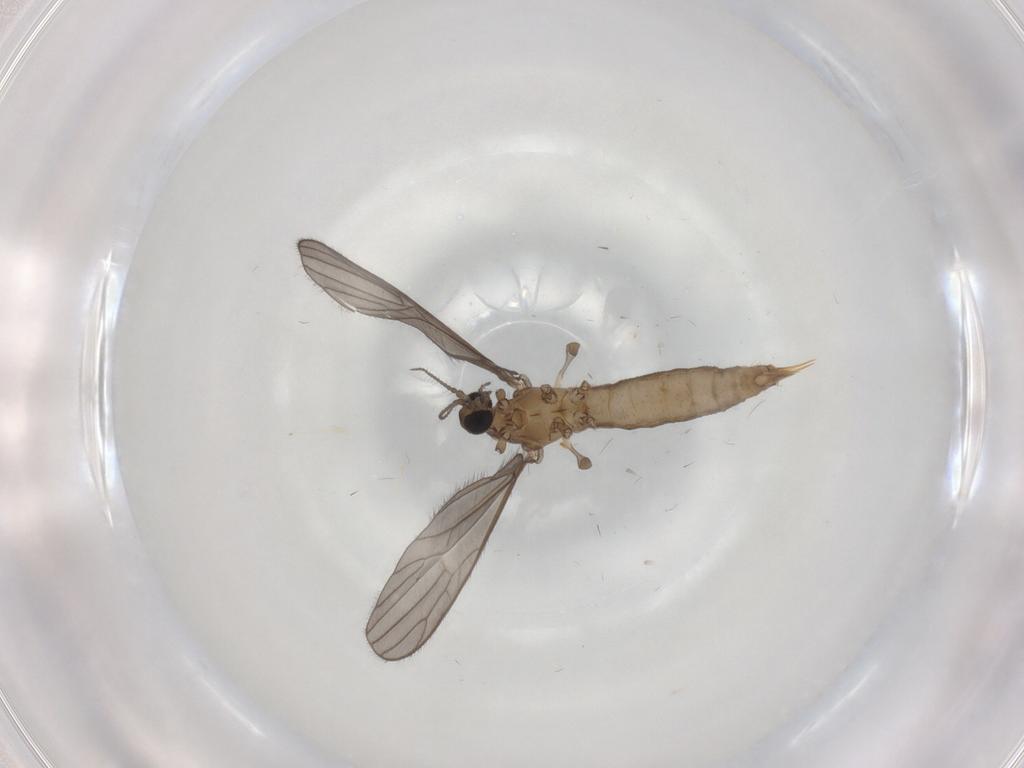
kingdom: Animalia
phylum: Arthropoda
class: Insecta
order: Diptera
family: Limoniidae
